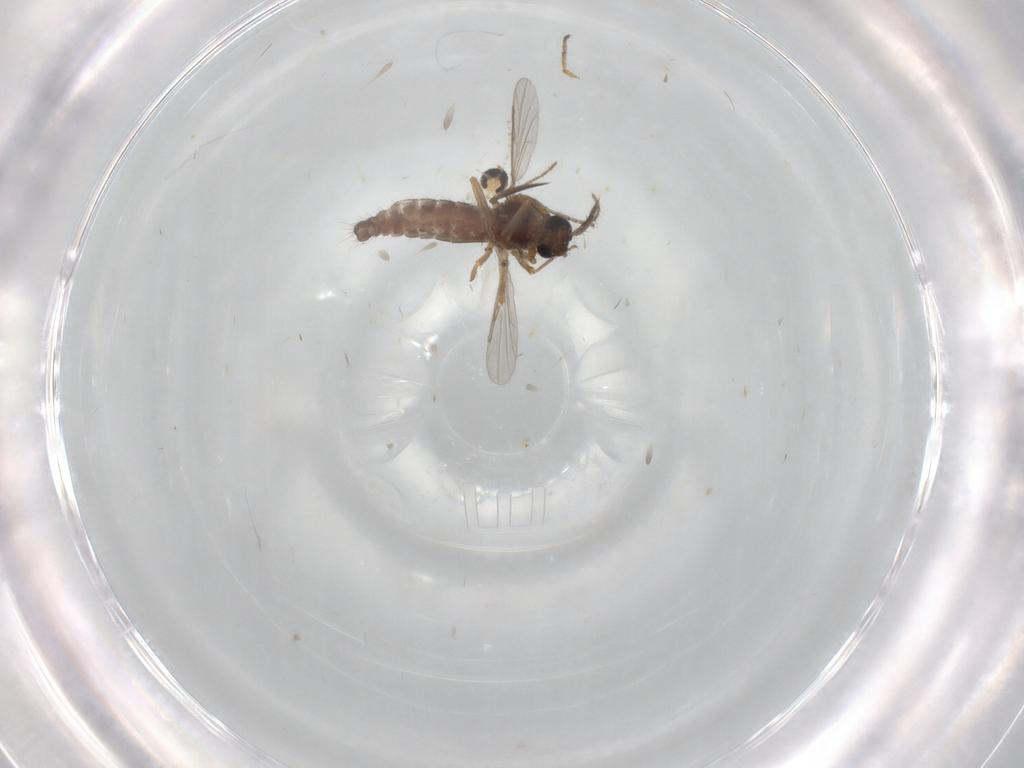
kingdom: Animalia
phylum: Arthropoda
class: Insecta
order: Diptera
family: Ceratopogonidae
